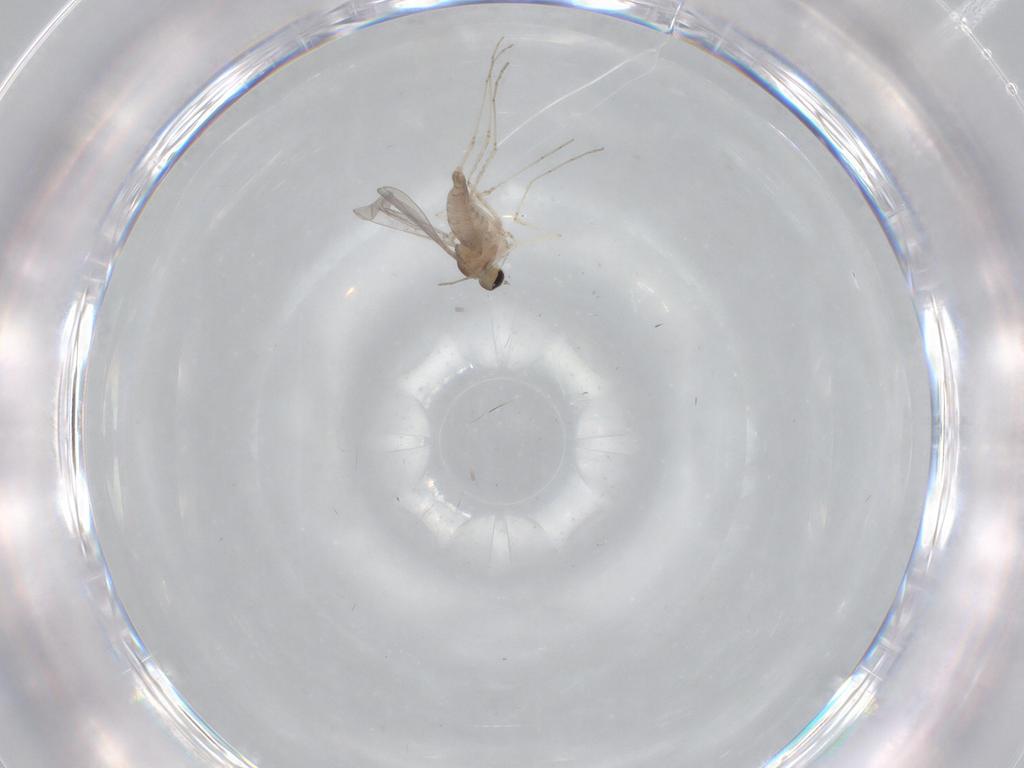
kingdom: Animalia
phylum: Arthropoda
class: Insecta
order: Diptera
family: Cecidomyiidae
